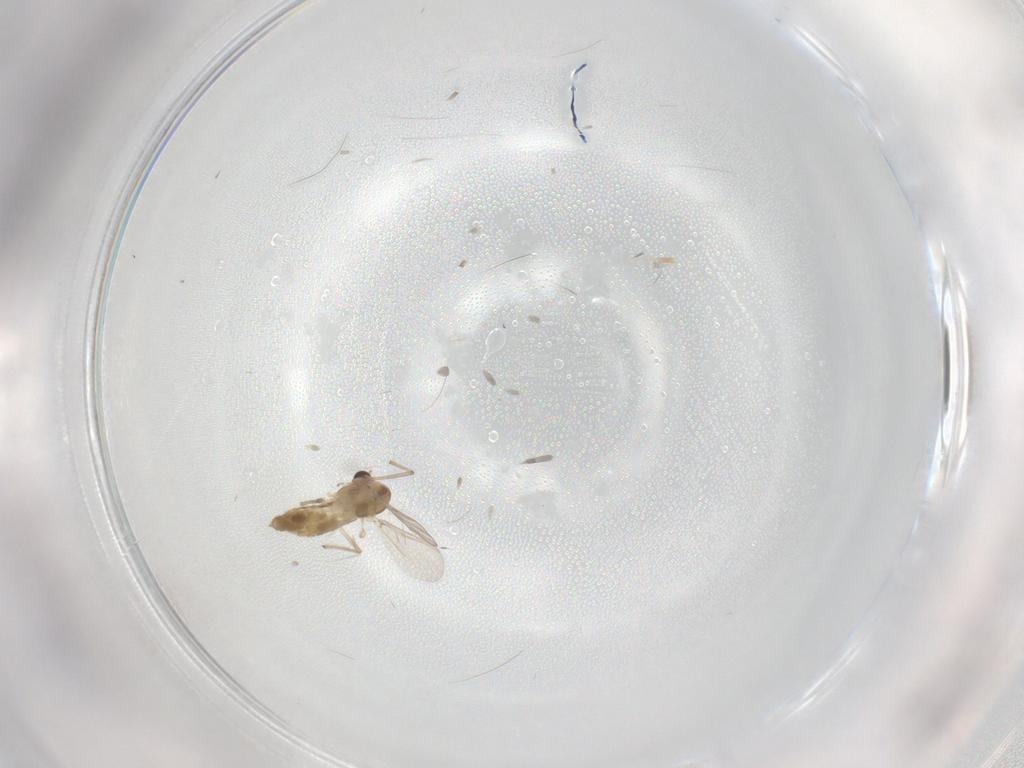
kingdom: Animalia
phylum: Arthropoda
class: Insecta
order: Diptera
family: Chironomidae
